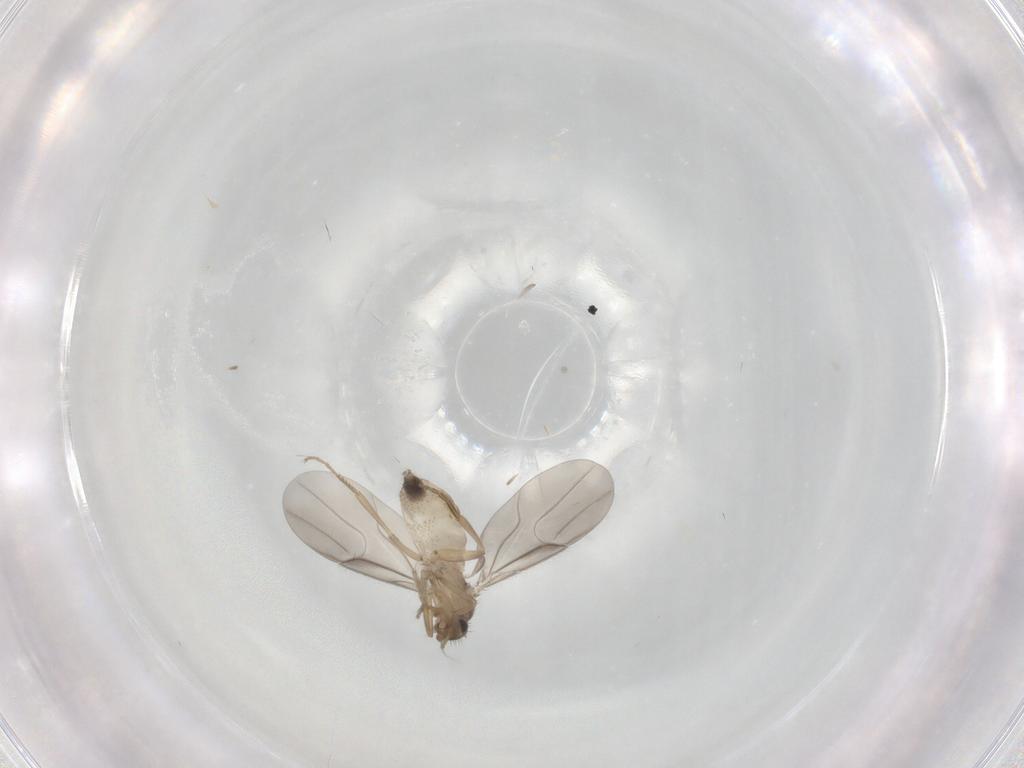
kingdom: Animalia
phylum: Arthropoda
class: Insecta
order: Diptera
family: Phoridae
